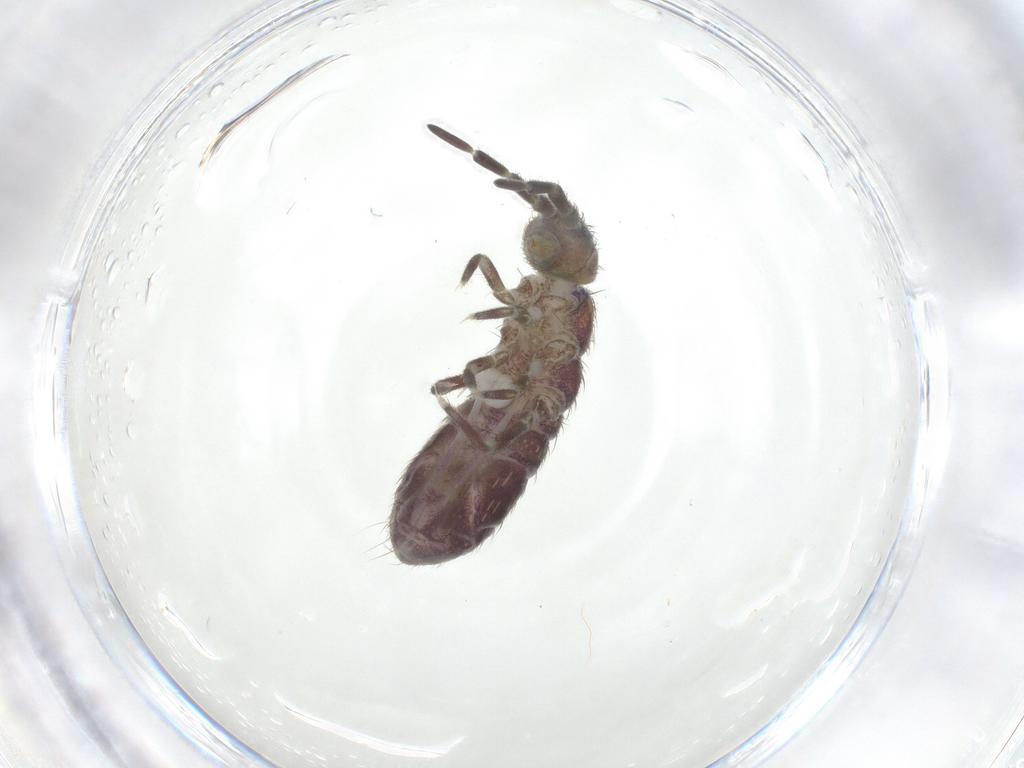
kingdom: Animalia
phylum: Arthropoda
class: Collembola
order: Entomobryomorpha
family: Isotomidae
